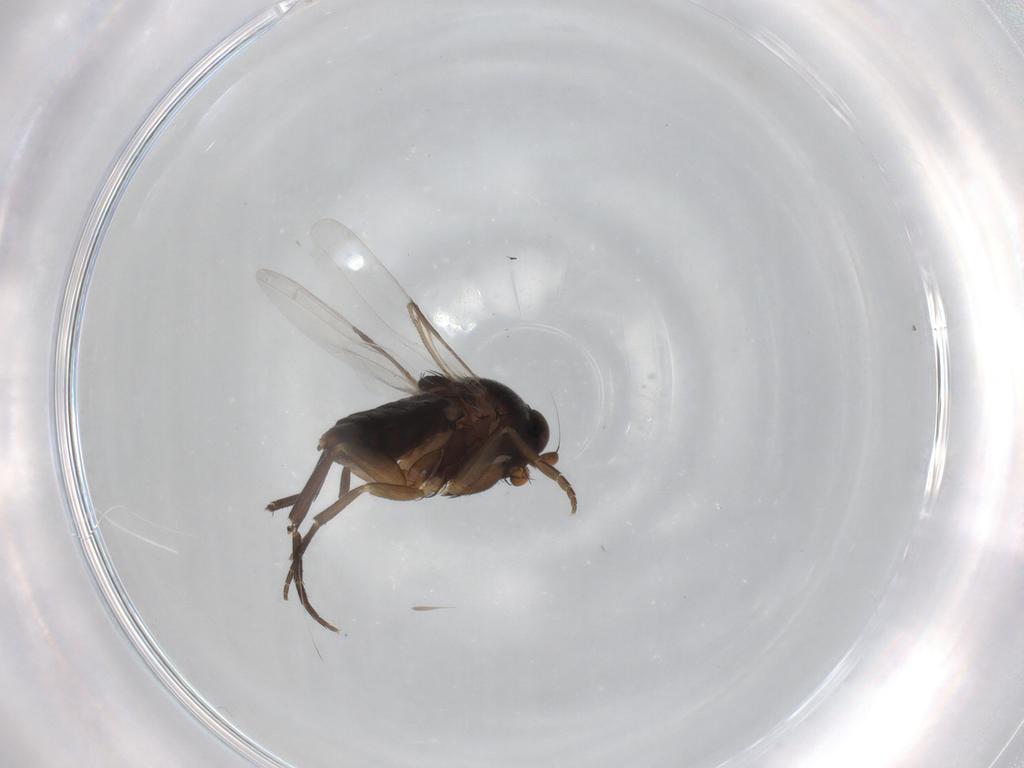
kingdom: Animalia
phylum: Arthropoda
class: Insecta
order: Diptera
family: Phoridae
